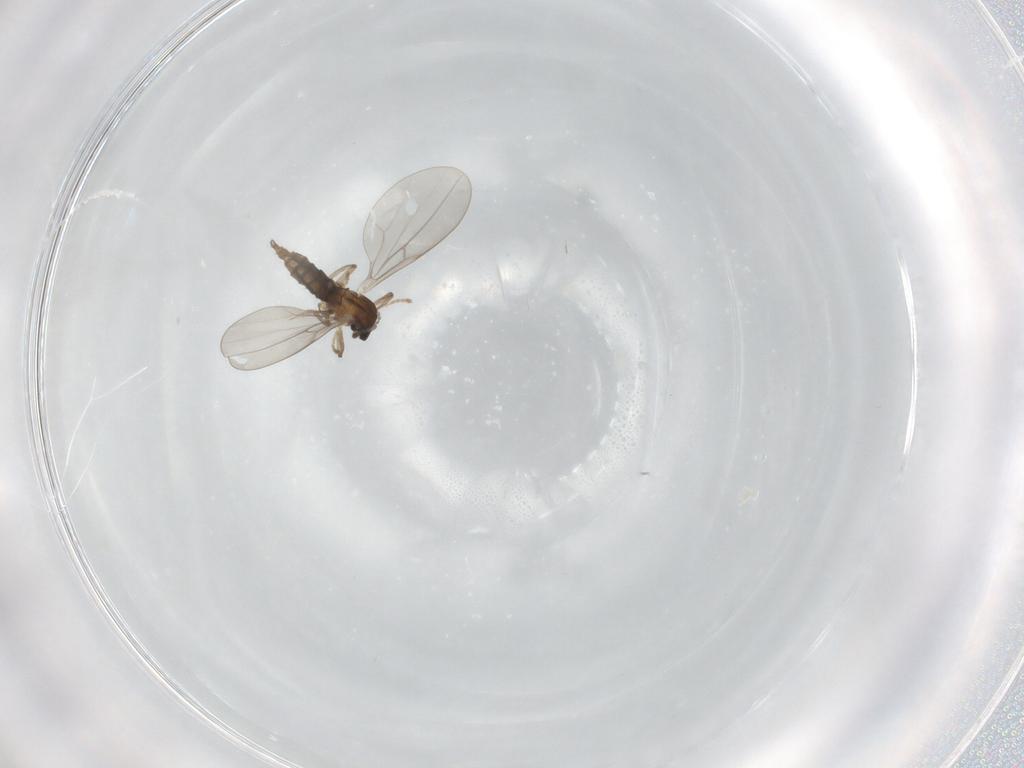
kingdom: Animalia
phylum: Arthropoda
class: Insecta
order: Diptera
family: Cecidomyiidae
